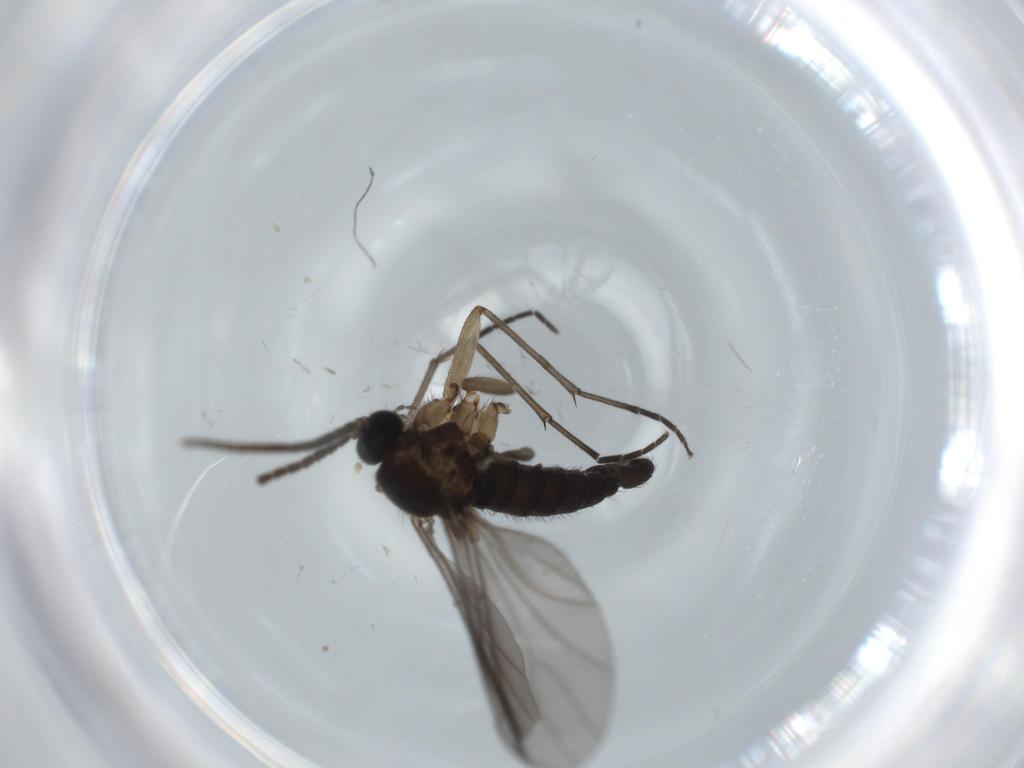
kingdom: Animalia
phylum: Arthropoda
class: Insecta
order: Diptera
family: Sciaridae
